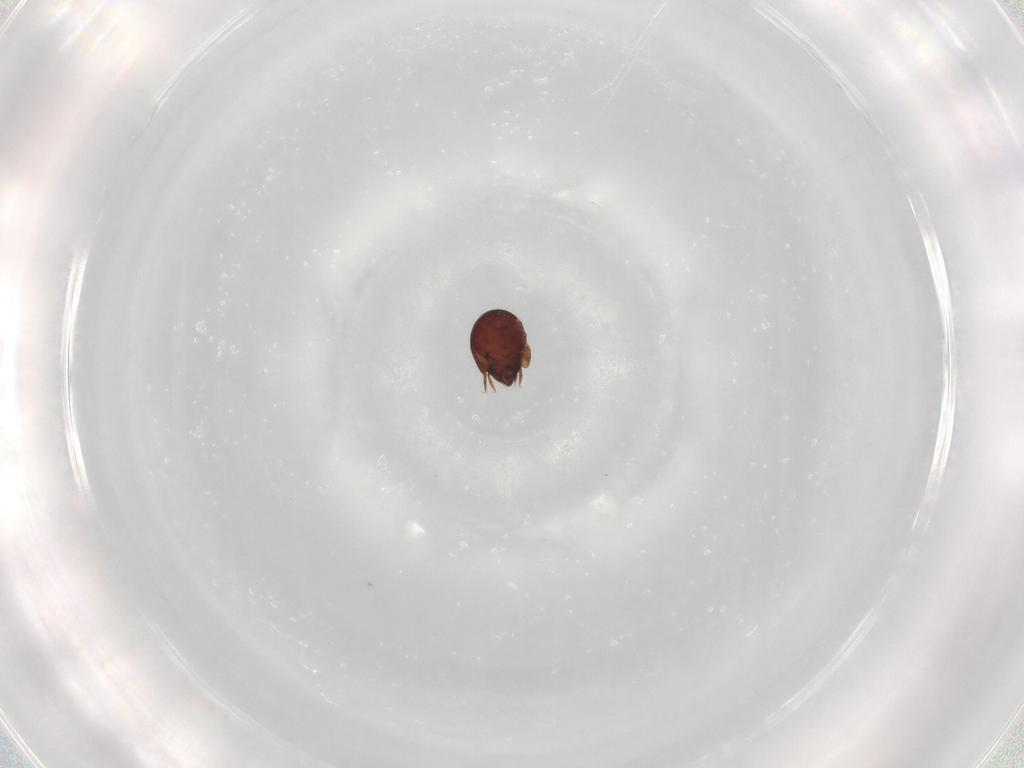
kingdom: Animalia
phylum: Arthropoda
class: Arachnida
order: Sarcoptiformes
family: Humerobatidae
